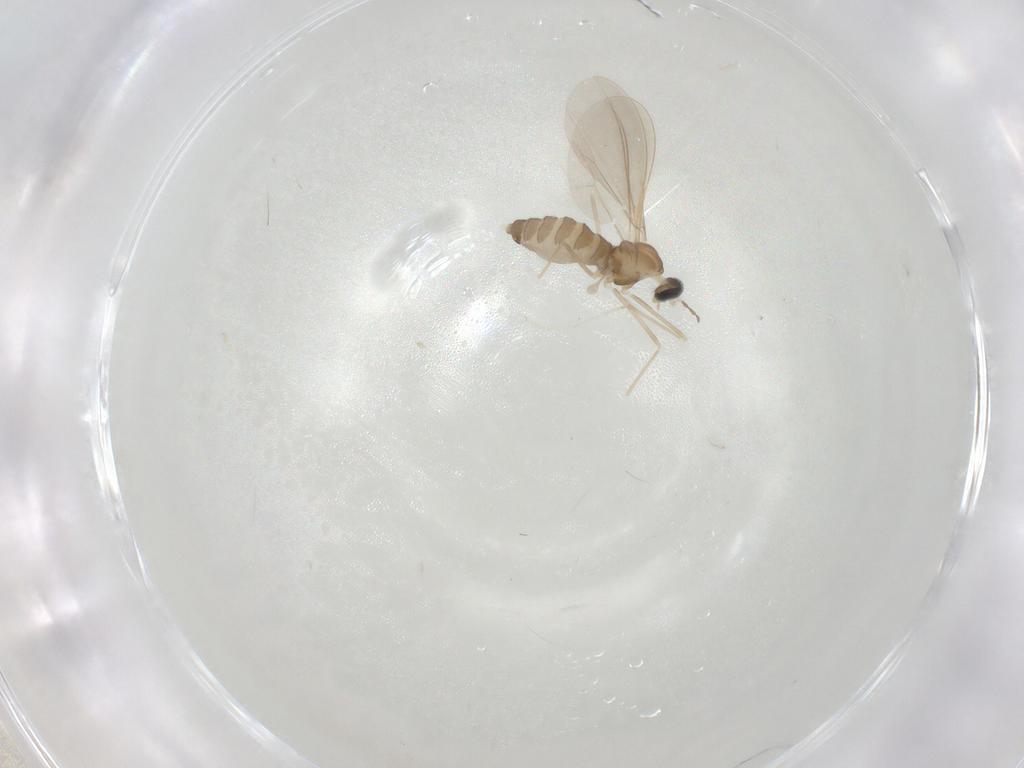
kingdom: Animalia
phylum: Arthropoda
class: Insecta
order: Diptera
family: Cecidomyiidae
